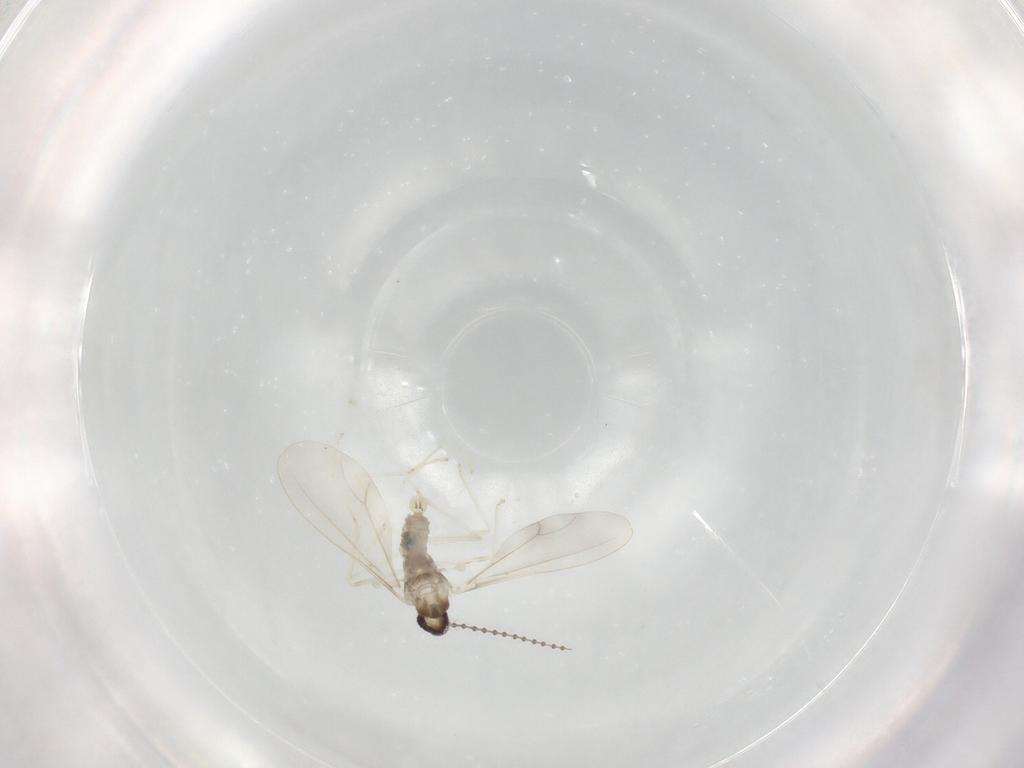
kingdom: Animalia
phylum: Arthropoda
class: Insecta
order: Diptera
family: Cecidomyiidae
